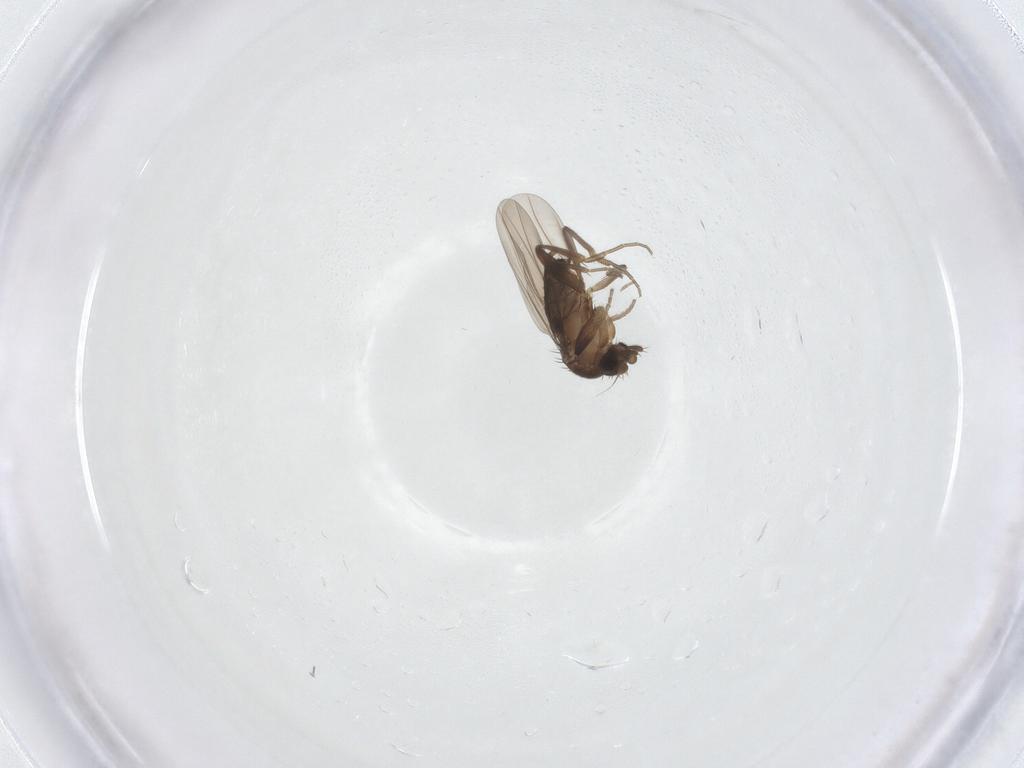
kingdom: Animalia
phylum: Arthropoda
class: Insecta
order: Diptera
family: Phoridae
